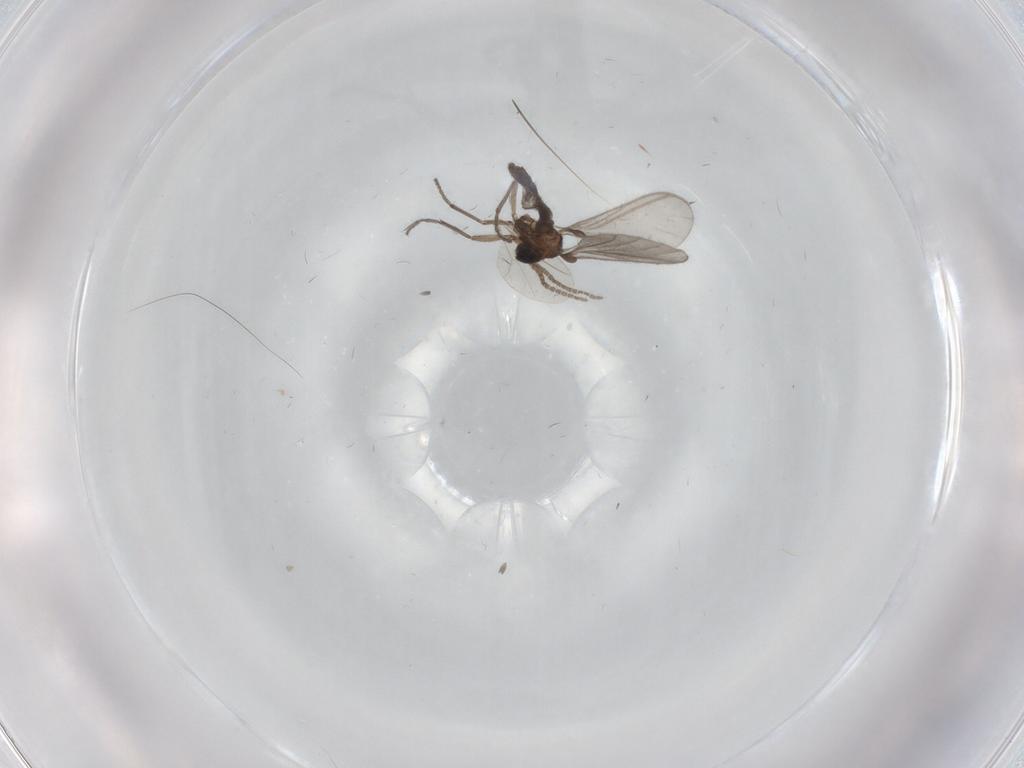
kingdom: Animalia
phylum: Arthropoda
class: Insecta
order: Diptera
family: Sciaridae
